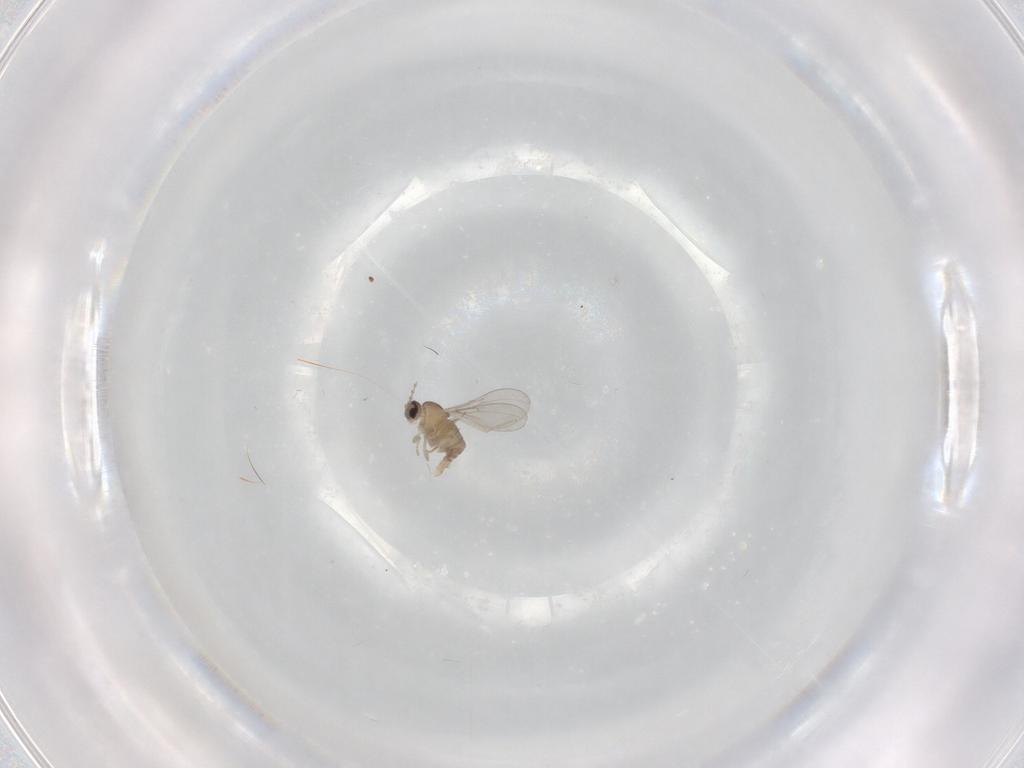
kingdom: Animalia
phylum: Arthropoda
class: Insecta
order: Diptera
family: Cecidomyiidae
